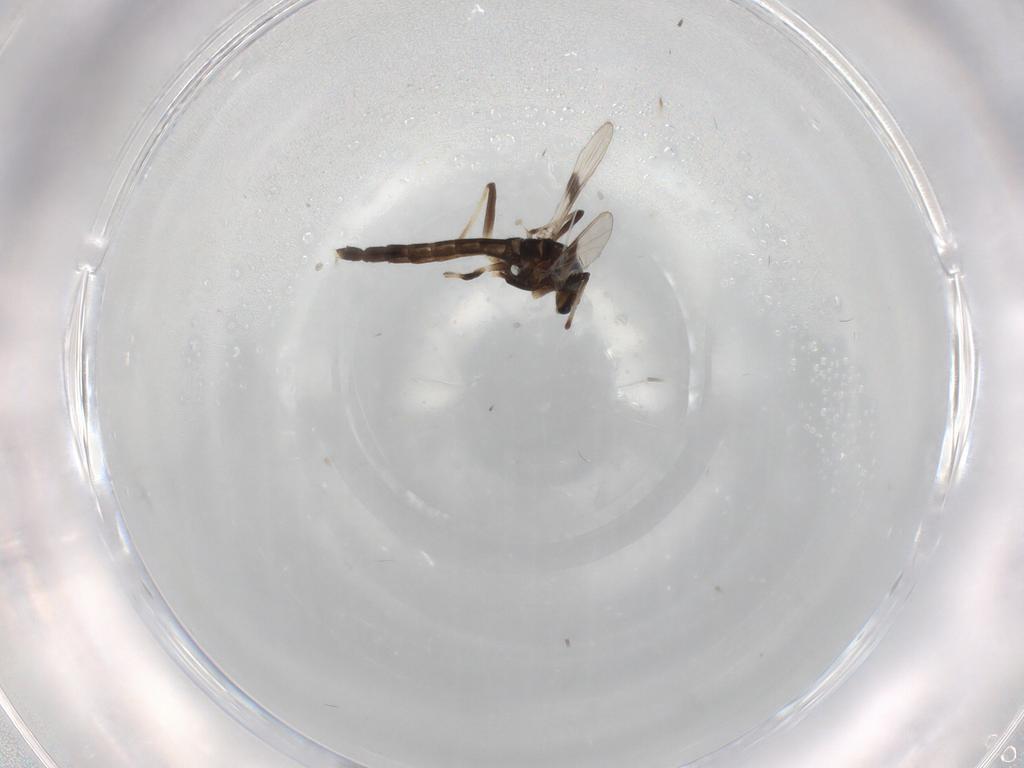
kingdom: Animalia
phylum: Arthropoda
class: Insecta
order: Diptera
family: Chironomidae
